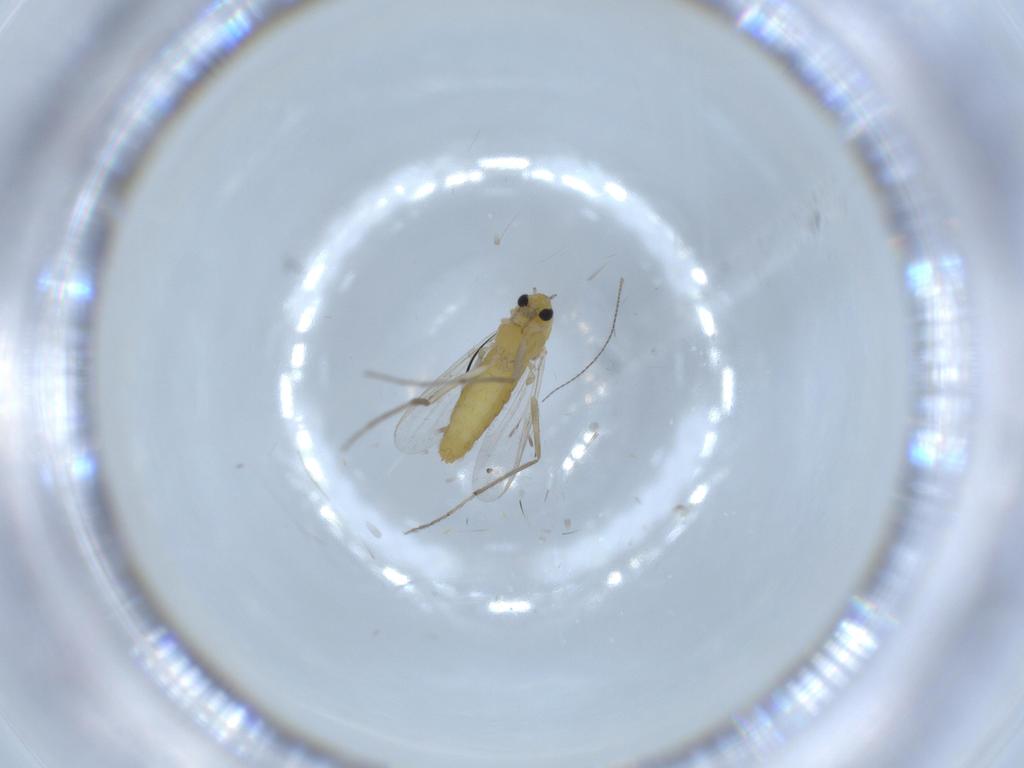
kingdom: Animalia
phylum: Arthropoda
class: Insecta
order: Diptera
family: Chironomidae
